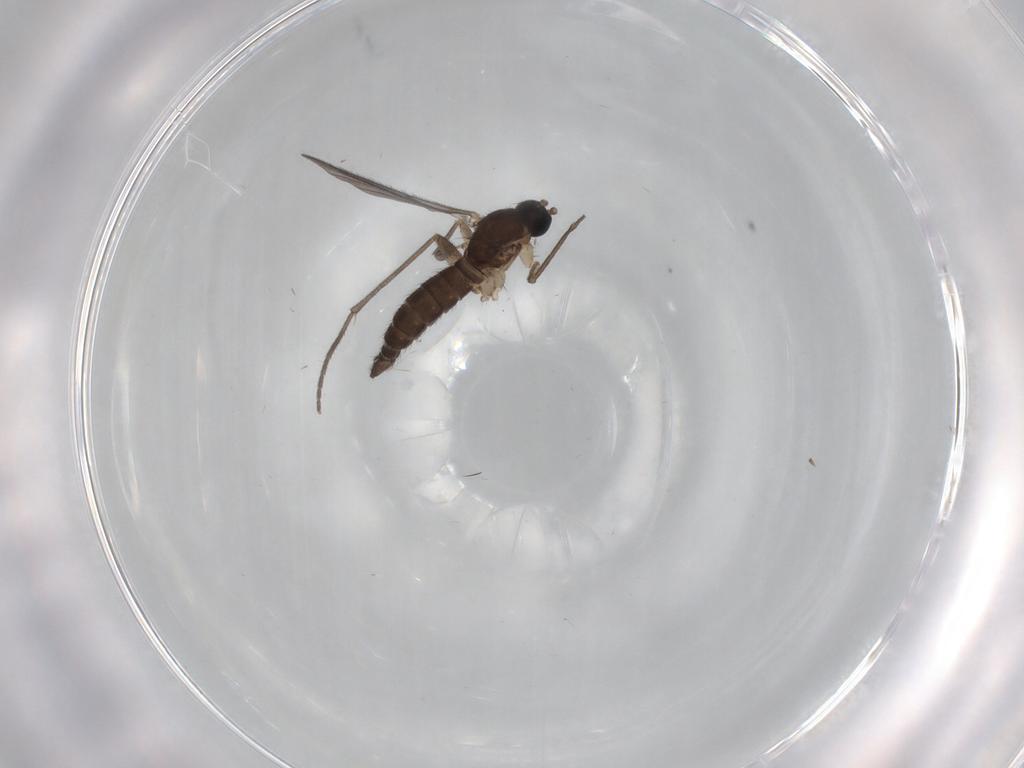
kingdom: Animalia
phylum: Arthropoda
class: Insecta
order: Diptera
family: Sciaridae
